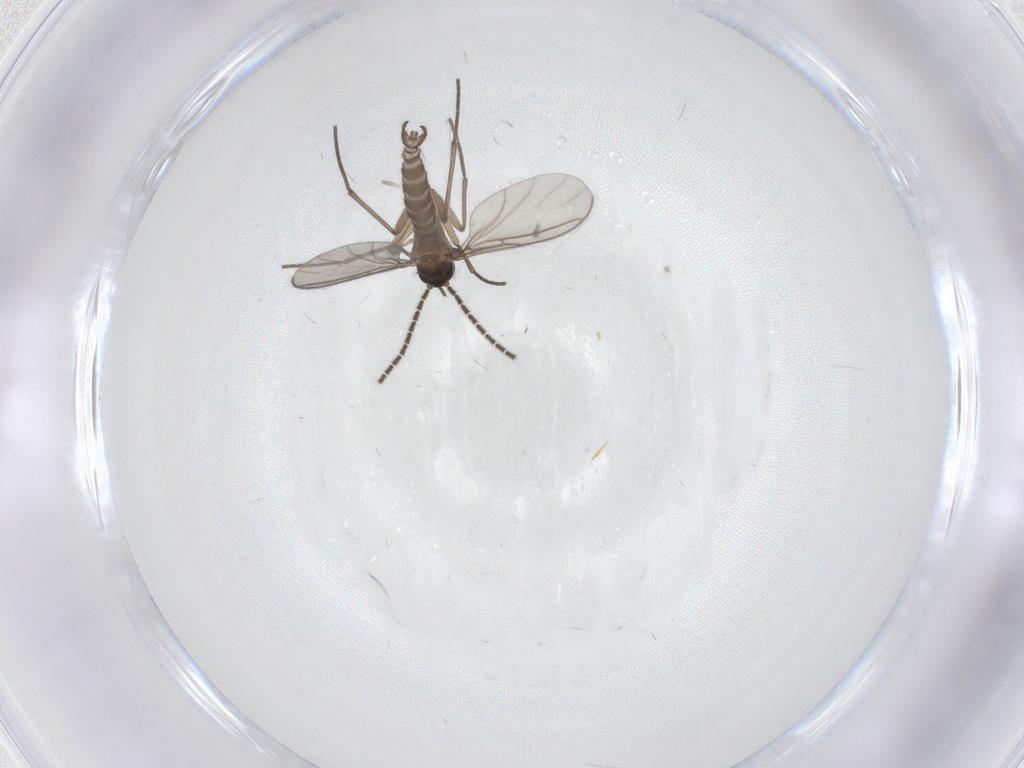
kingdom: Animalia
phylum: Arthropoda
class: Insecta
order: Diptera
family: Sciaridae
